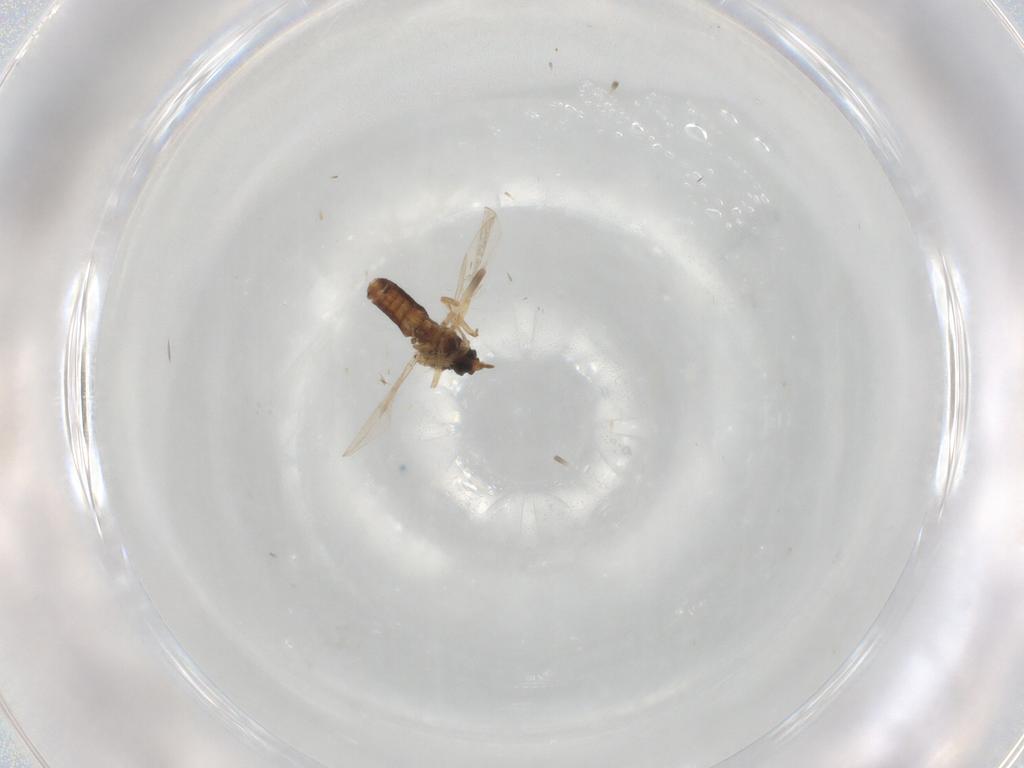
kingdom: Animalia
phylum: Arthropoda
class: Insecta
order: Diptera
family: Ceratopogonidae
